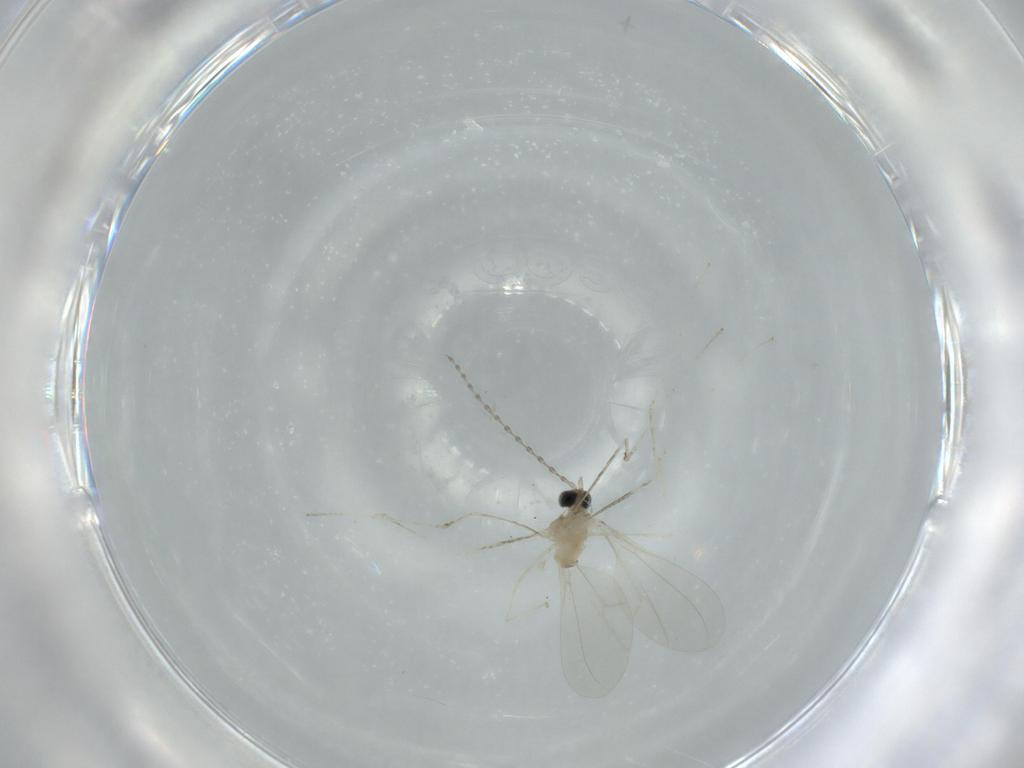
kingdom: Animalia
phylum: Arthropoda
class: Insecta
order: Diptera
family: Cecidomyiidae
